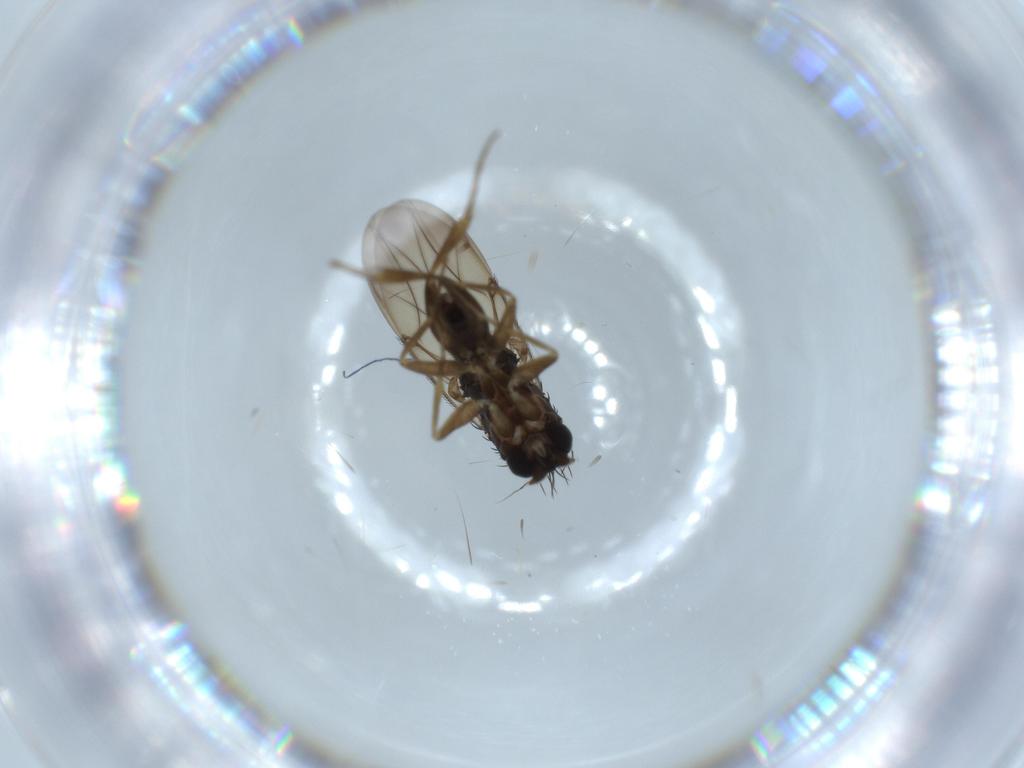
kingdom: Animalia
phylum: Arthropoda
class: Insecta
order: Diptera
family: Phoridae
